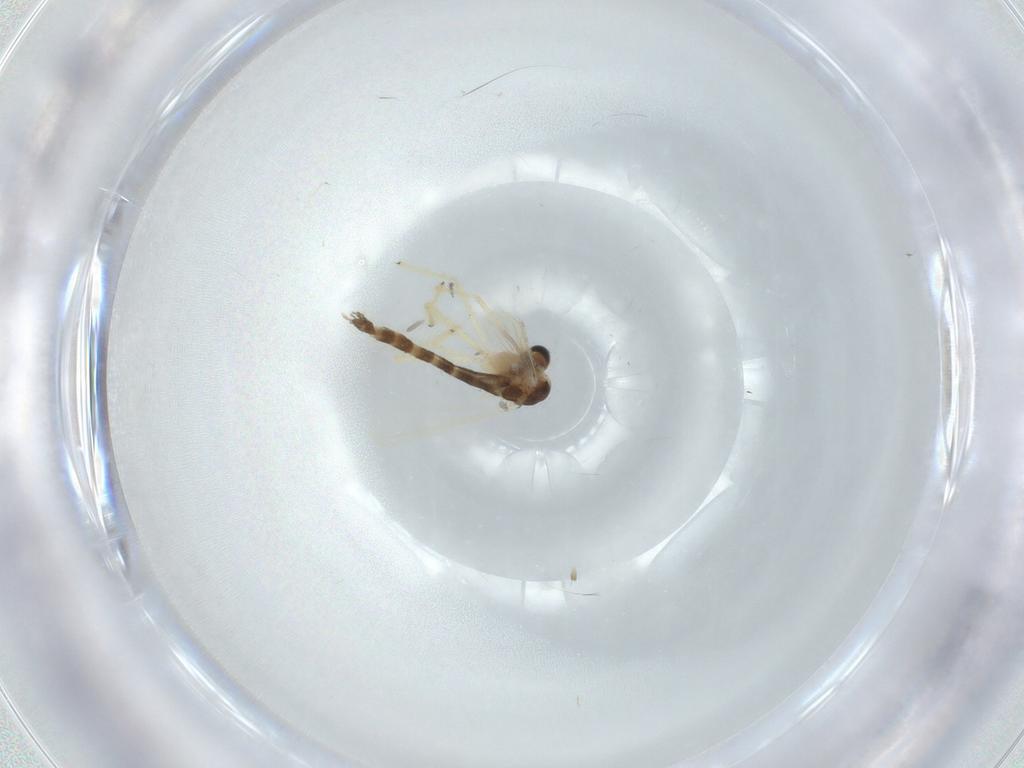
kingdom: Animalia
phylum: Arthropoda
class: Insecta
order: Diptera
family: Chironomidae
